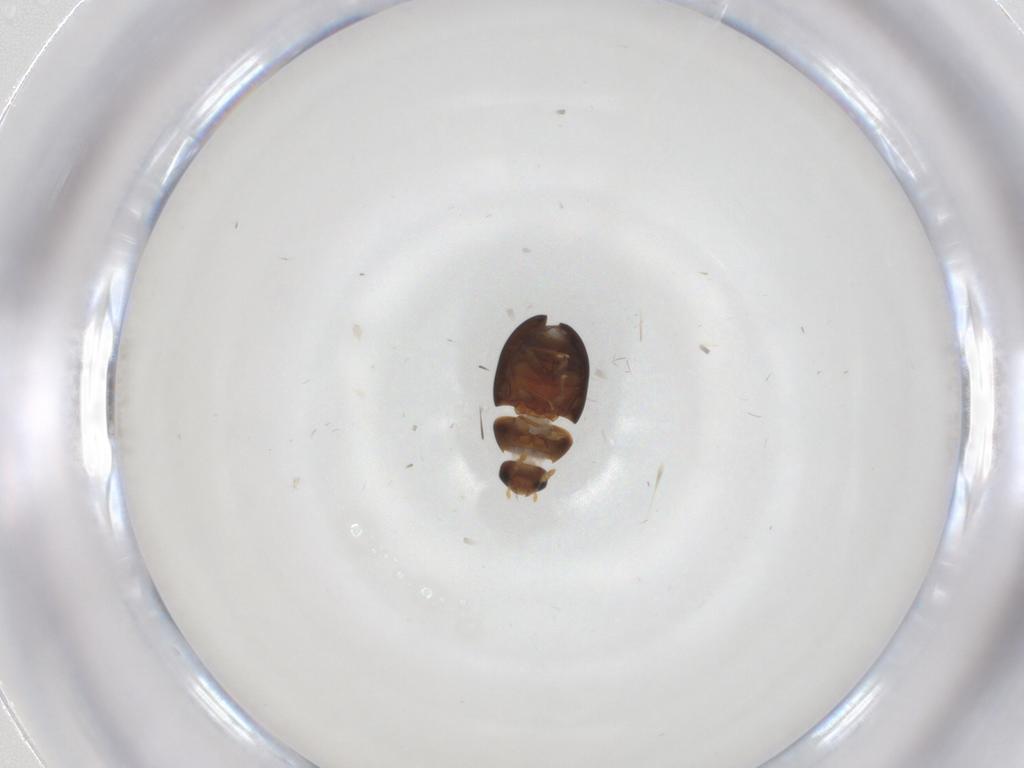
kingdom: Animalia
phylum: Arthropoda
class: Insecta
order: Coleoptera
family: Phalacridae
